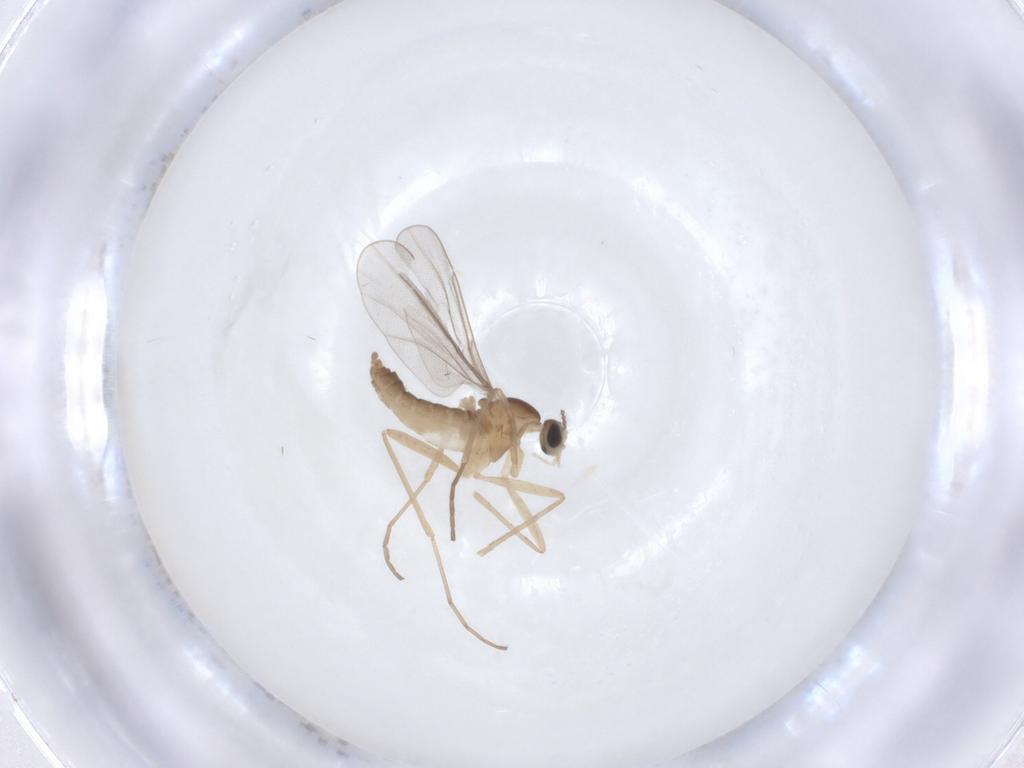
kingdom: Animalia
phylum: Arthropoda
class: Insecta
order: Diptera
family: Cecidomyiidae
